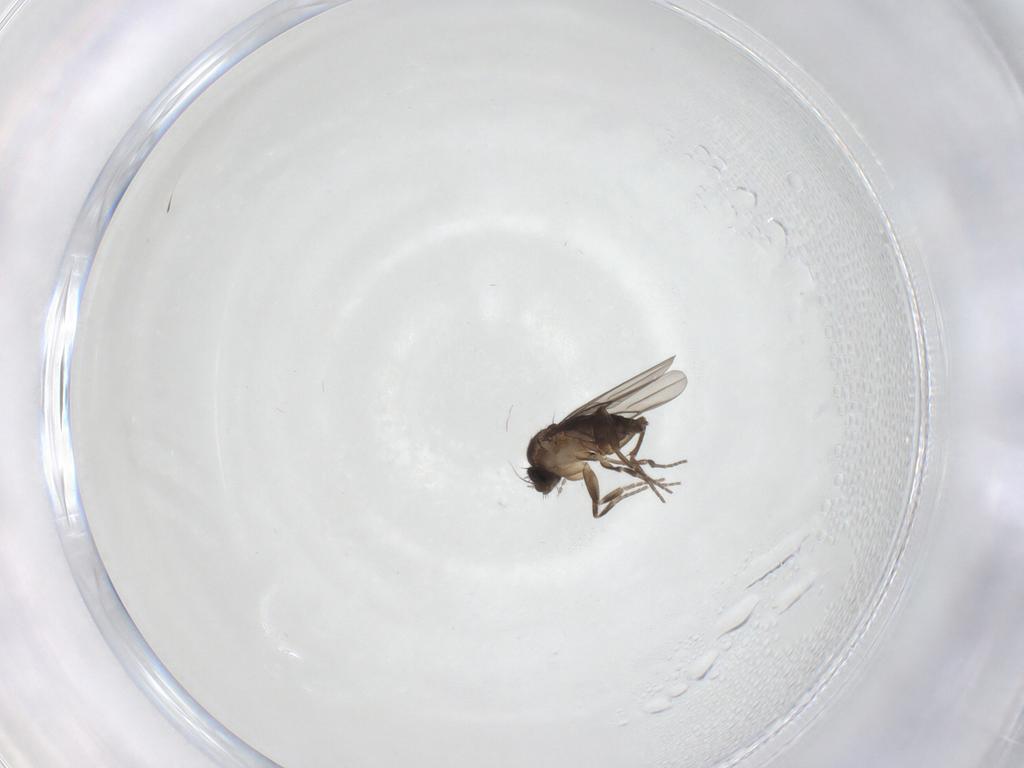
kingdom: Animalia
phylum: Arthropoda
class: Insecta
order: Diptera
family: Cecidomyiidae
